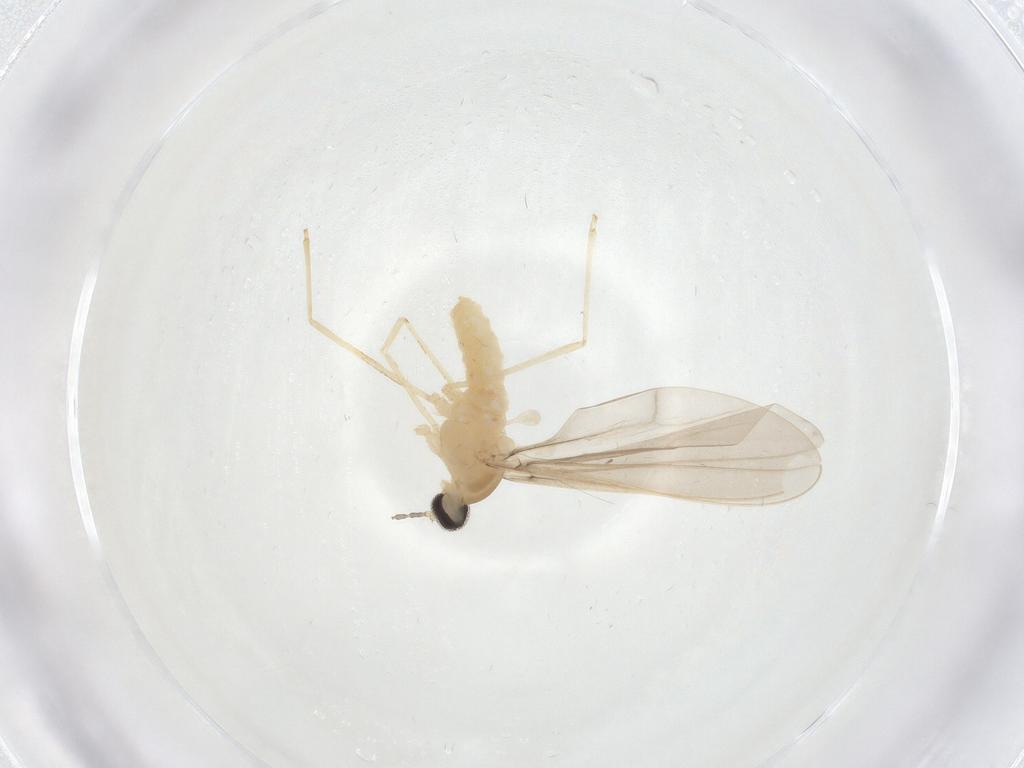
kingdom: Animalia
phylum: Arthropoda
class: Insecta
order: Diptera
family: Cecidomyiidae
